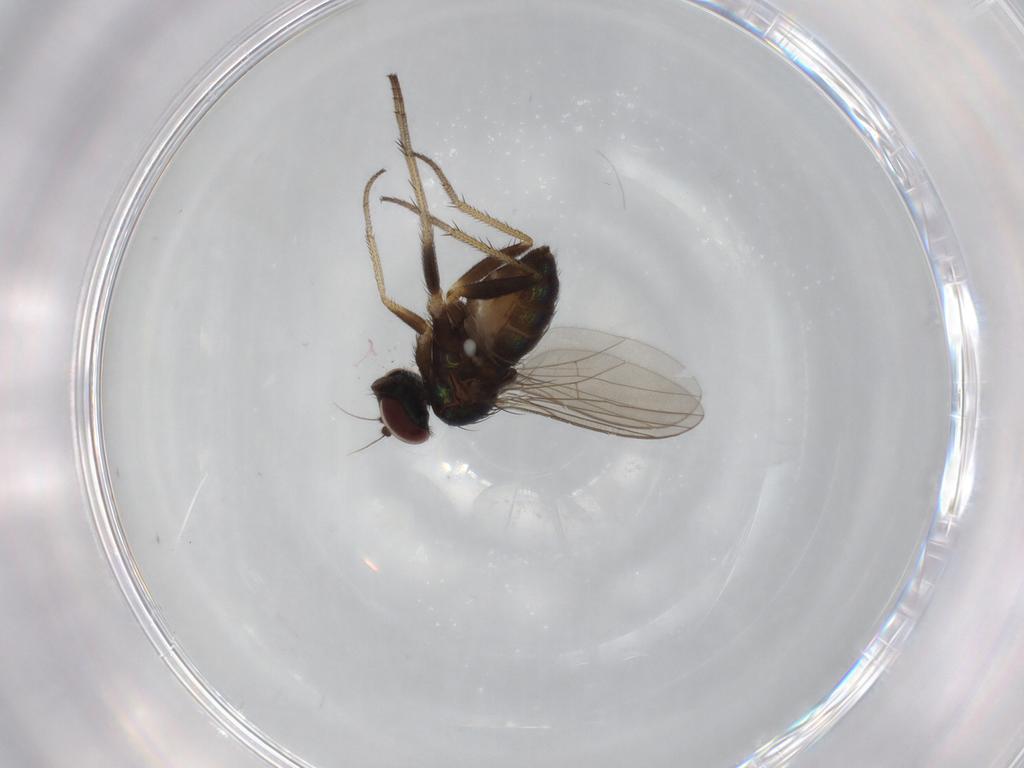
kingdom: Animalia
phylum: Arthropoda
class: Insecta
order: Diptera
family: Dolichopodidae
